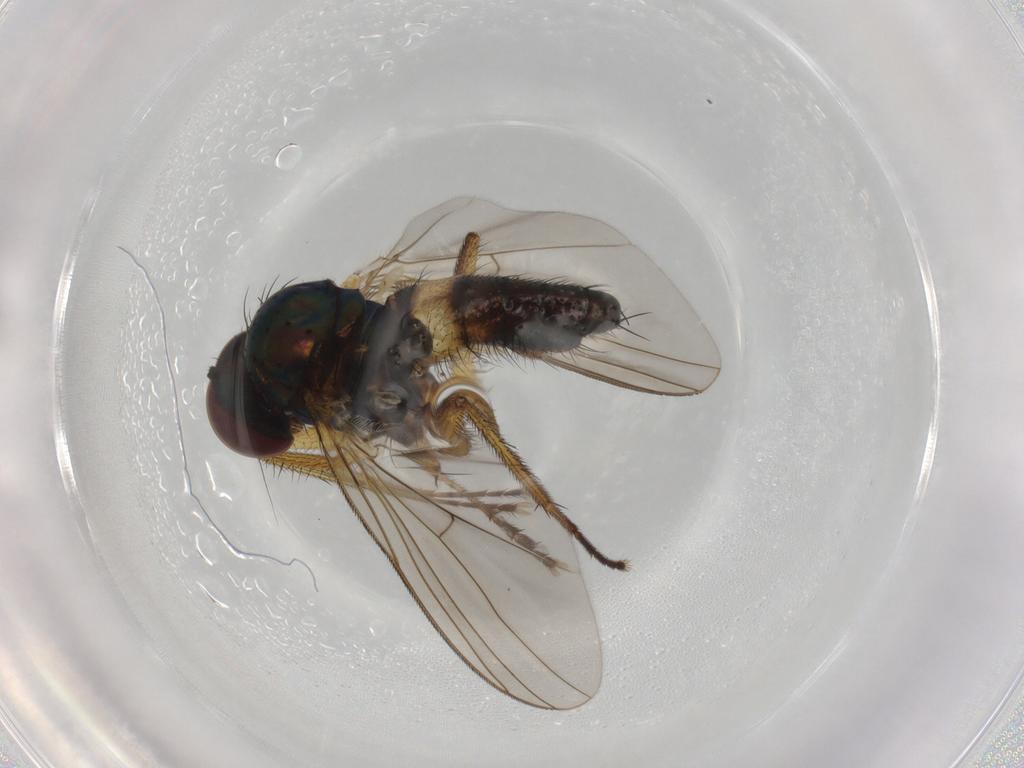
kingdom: Animalia
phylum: Arthropoda
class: Insecta
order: Diptera
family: Dolichopodidae
